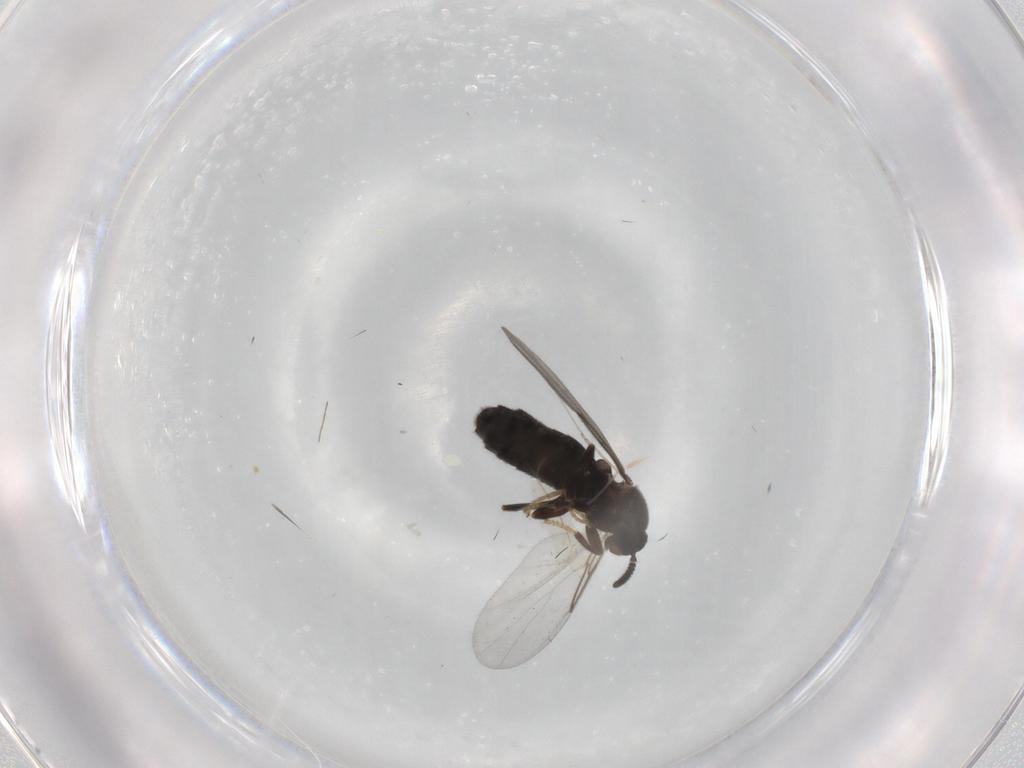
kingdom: Animalia
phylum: Arthropoda
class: Insecta
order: Diptera
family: Scatopsidae
